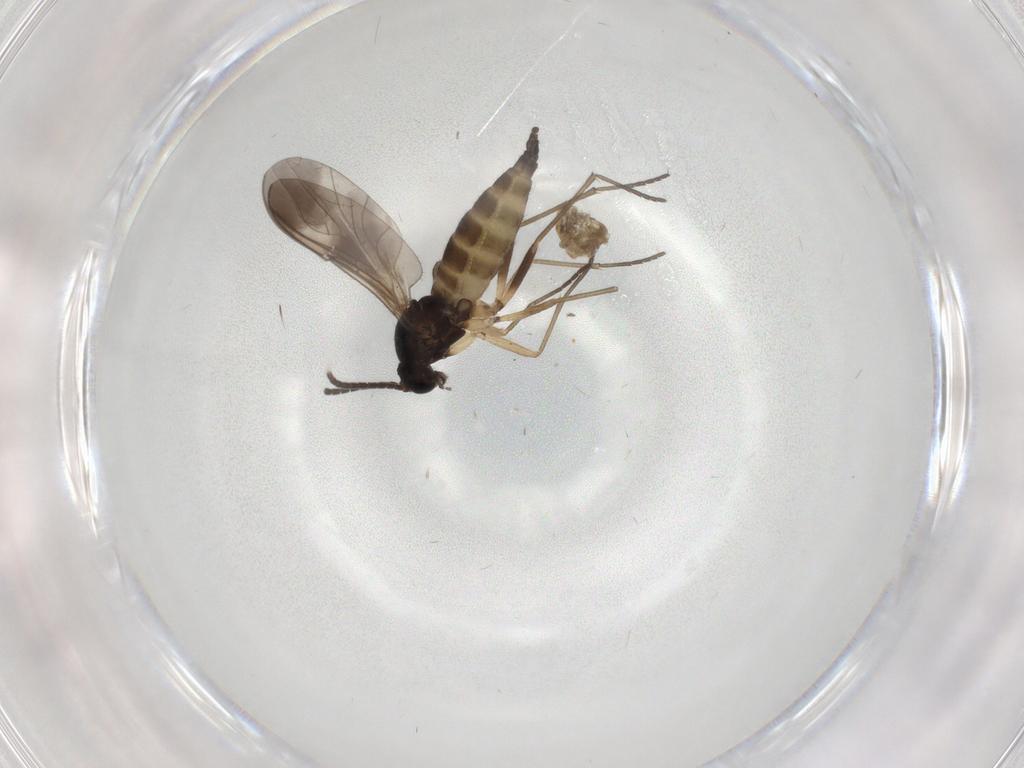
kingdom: Animalia
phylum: Arthropoda
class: Insecta
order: Diptera
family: Sciaridae
